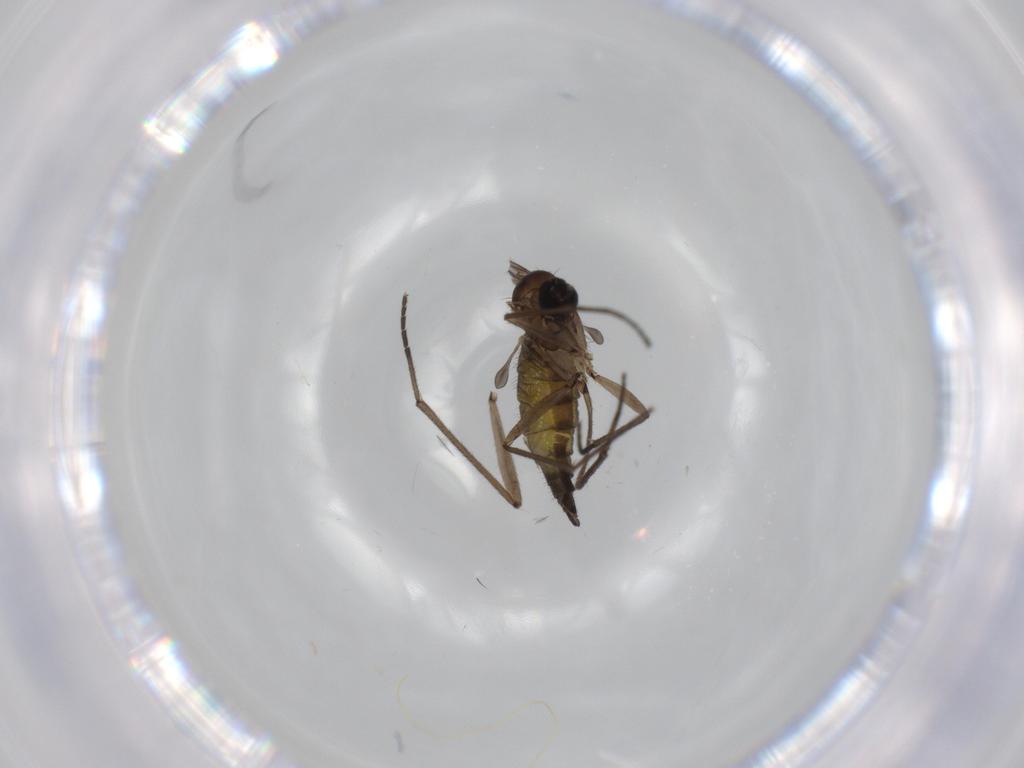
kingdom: Animalia
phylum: Arthropoda
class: Insecta
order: Diptera
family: Sciaridae
